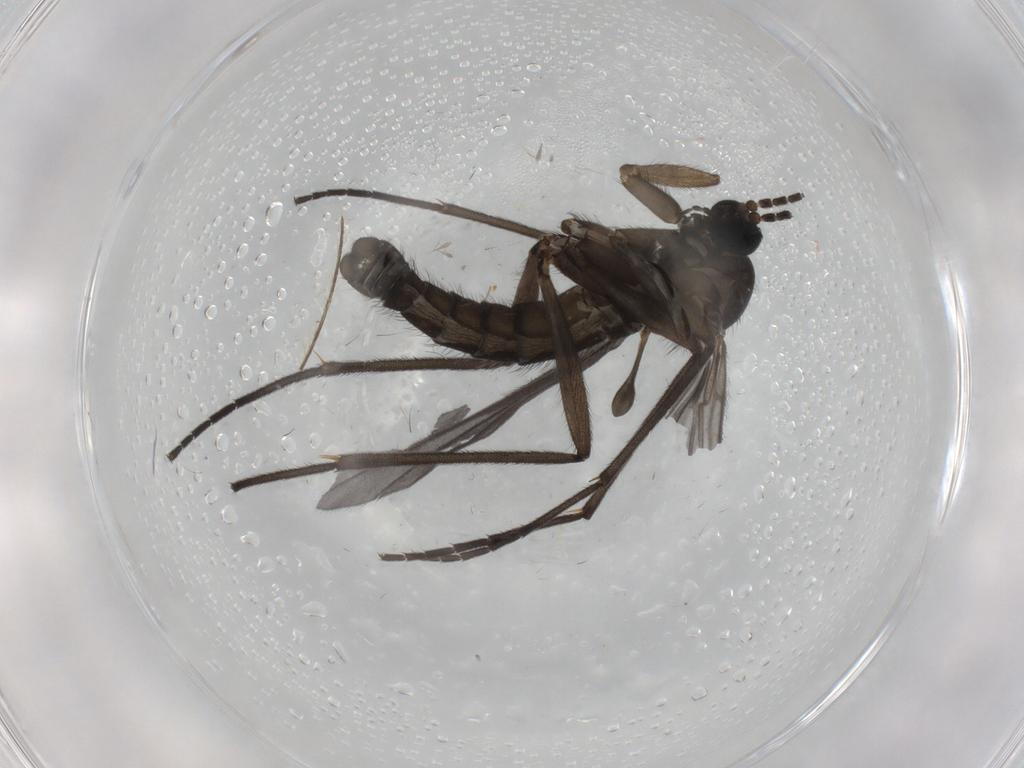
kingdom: Animalia
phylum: Arthropoda
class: Insecta
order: Diptera
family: Sciaridae
